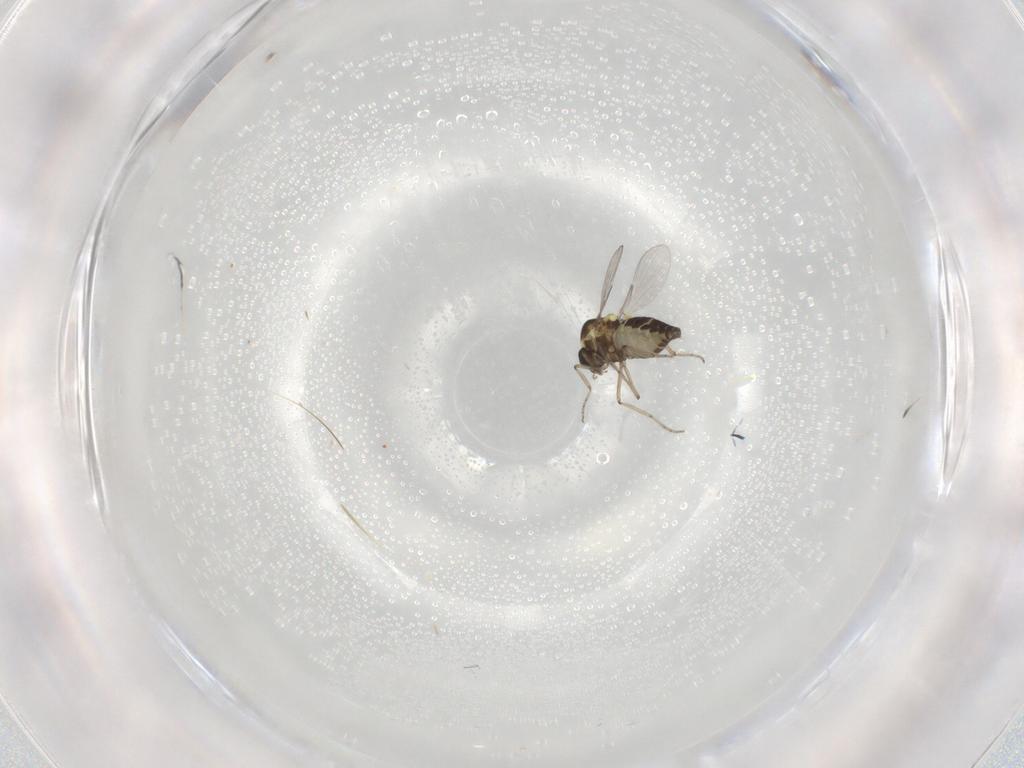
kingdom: Animalia
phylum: Arthropoda
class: Insecta
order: Diptera
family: Ceratopogonidae
